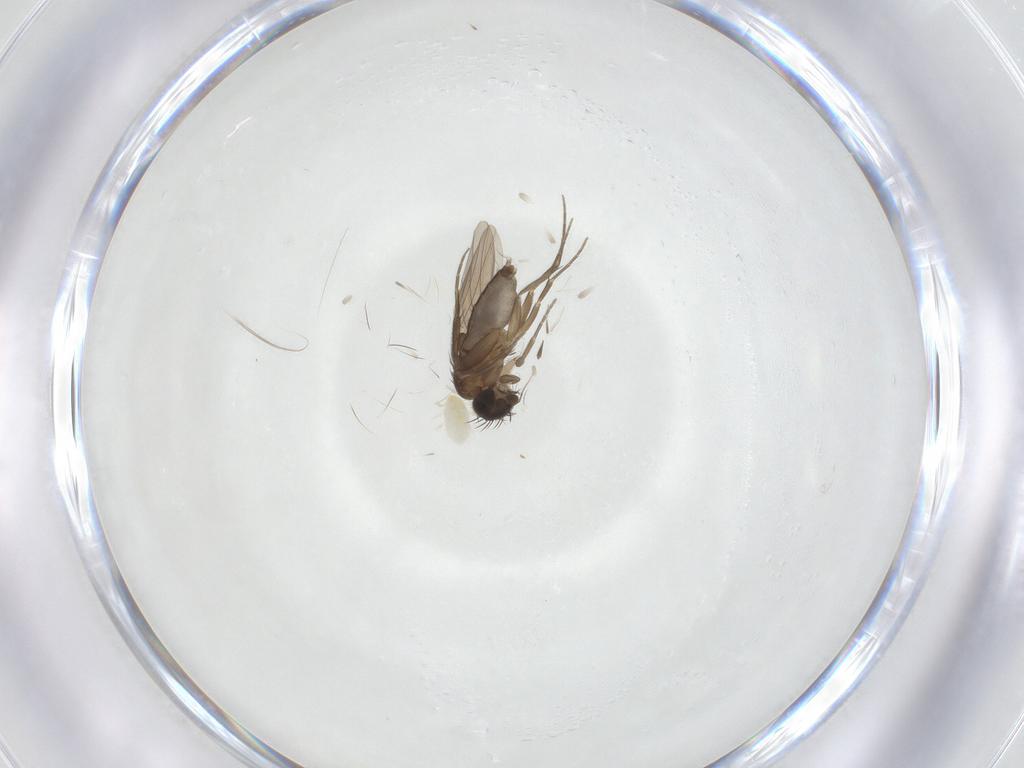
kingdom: Animalia
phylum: Arthropoda
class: Insecta
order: Diptera
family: Phoridae
